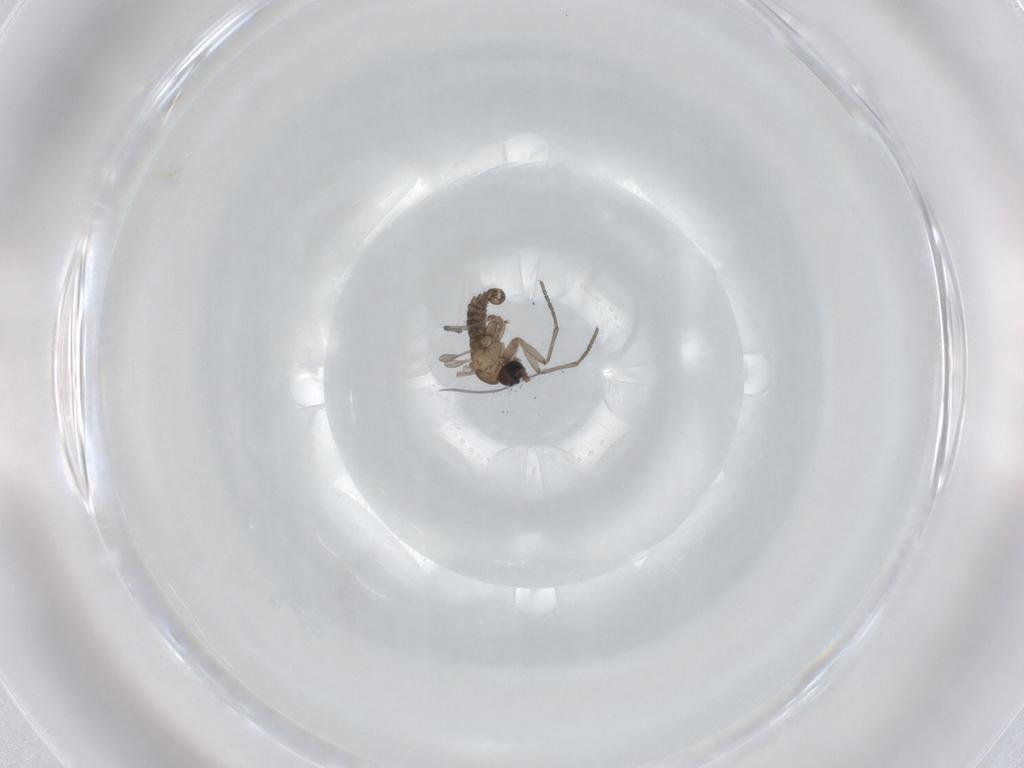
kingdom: Animalia
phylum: Arthropoda
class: Insecta
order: Diptera
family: Sciaridae
